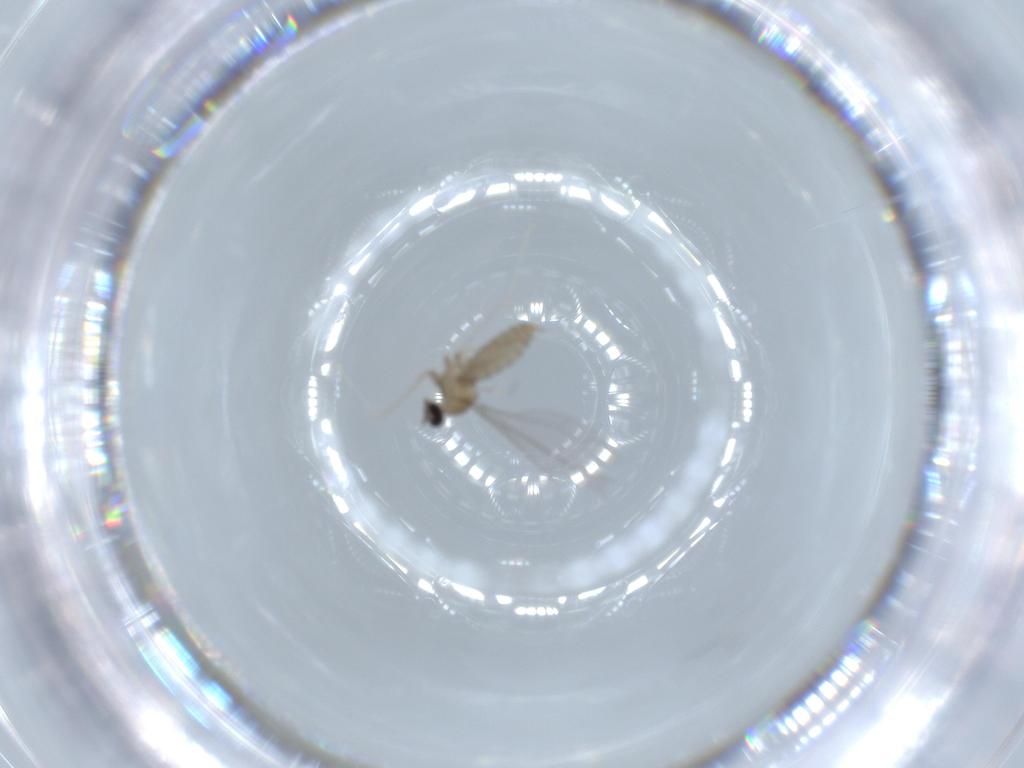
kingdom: Animalia
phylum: Arthropoda
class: Insecta
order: Diptera
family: Cecidomyiidae
